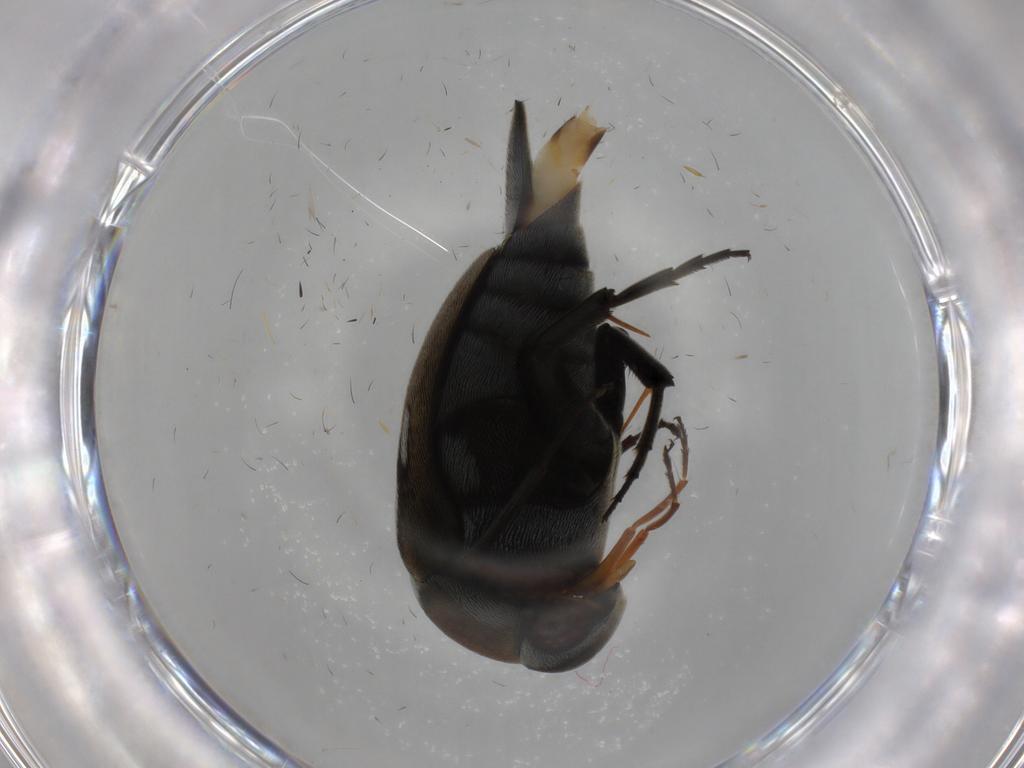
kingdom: Animalia
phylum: Arthropoda
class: Insecta
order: Coleoptera
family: Mordellidae
